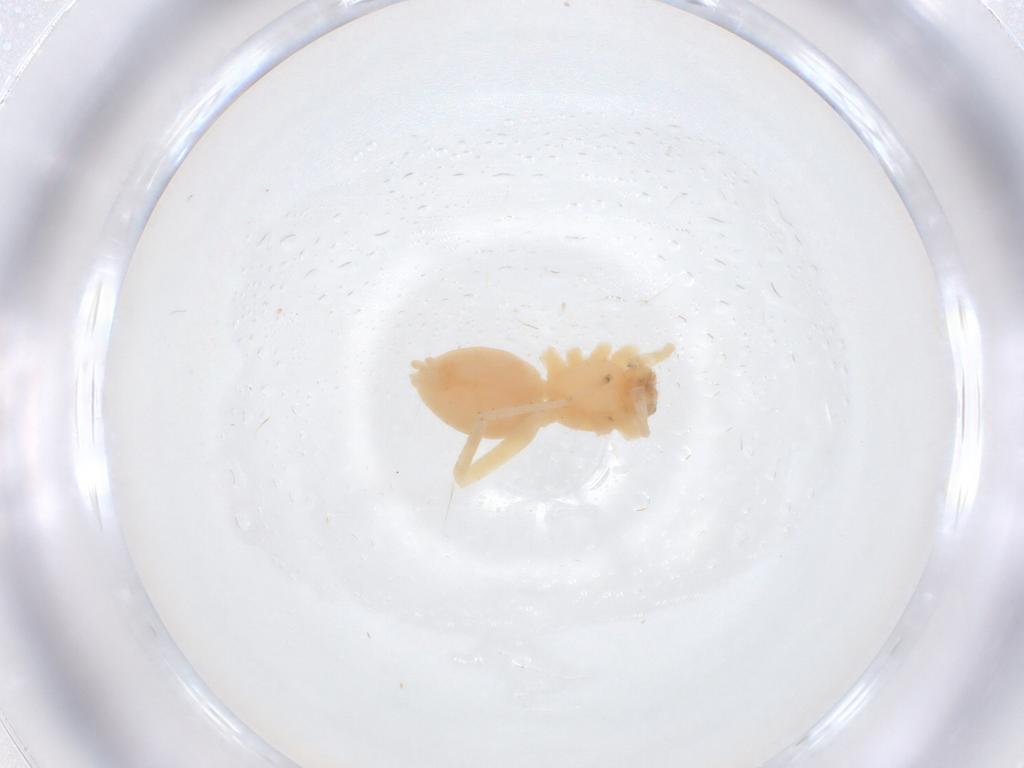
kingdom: Animalia
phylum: Arthropoda
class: Arachnida
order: Araneae
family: Anyphaenidae
